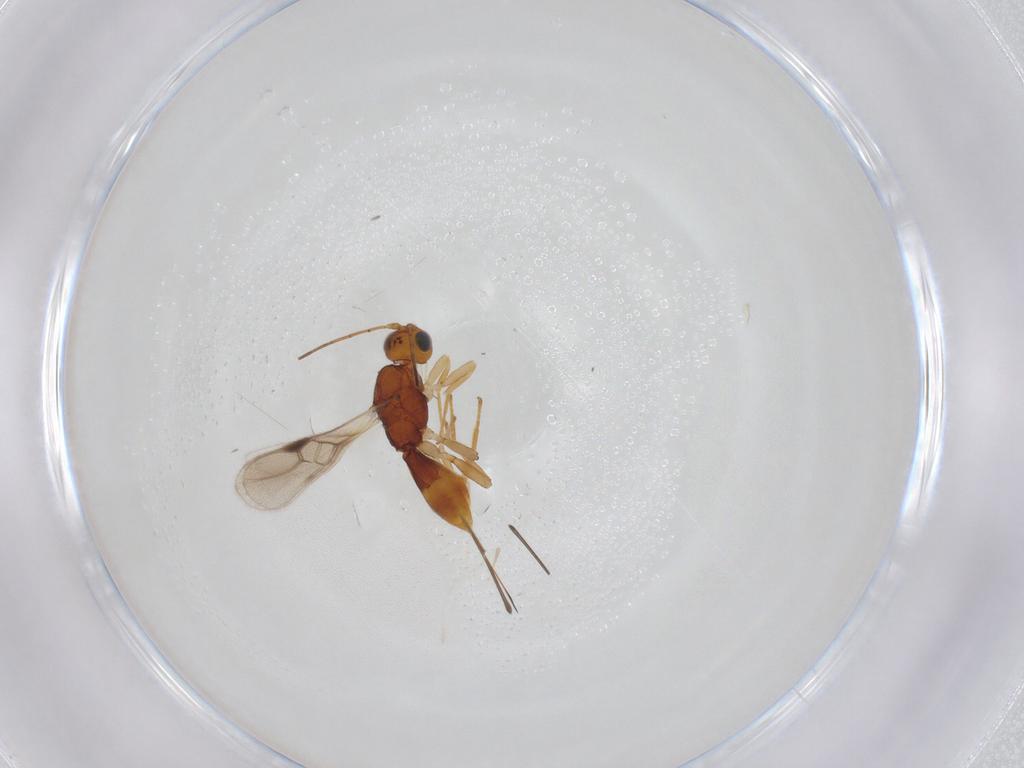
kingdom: Animalia
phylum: Arthropoda
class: Insecta
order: Hymenoptera
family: Braconidae
